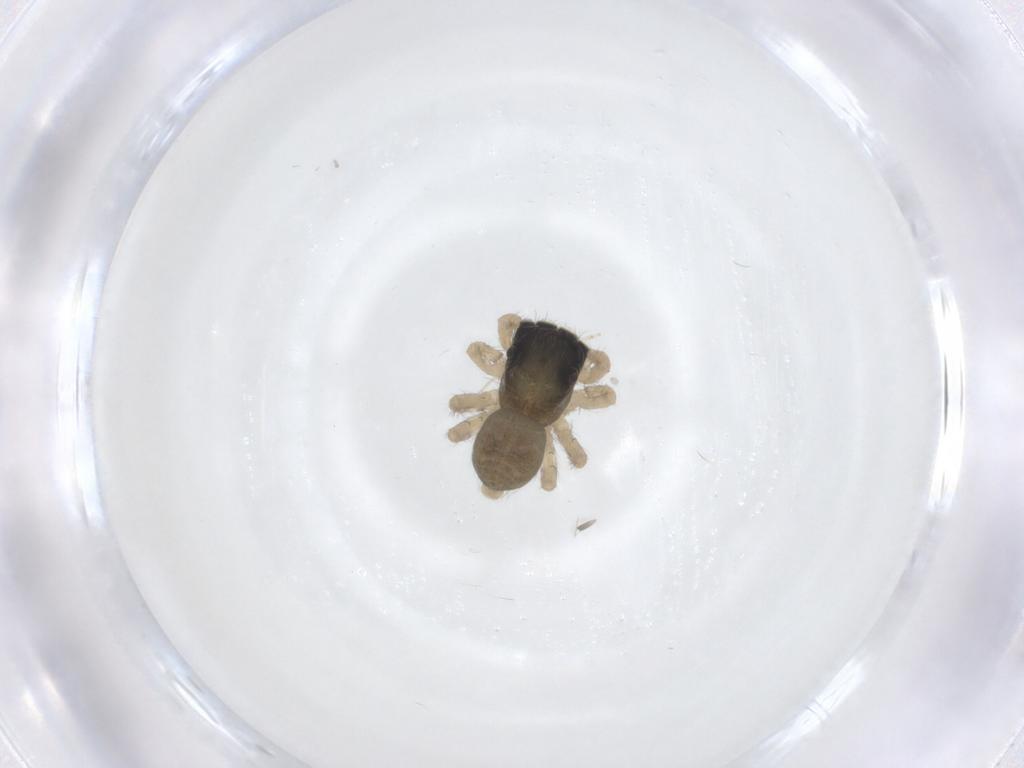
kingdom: Animalia
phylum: Arthropoda
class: Arachnida
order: Araneae
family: Salticidae
